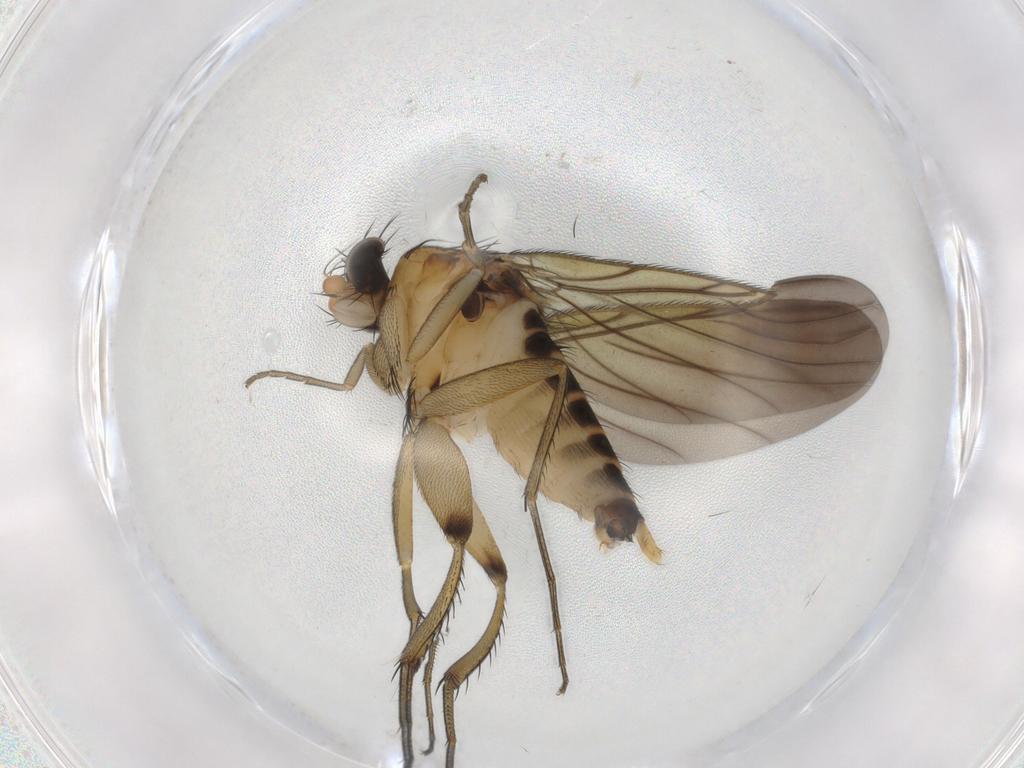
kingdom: Animalia
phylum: Arthropoda
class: Insecta
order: Diptera
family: Phoridae
